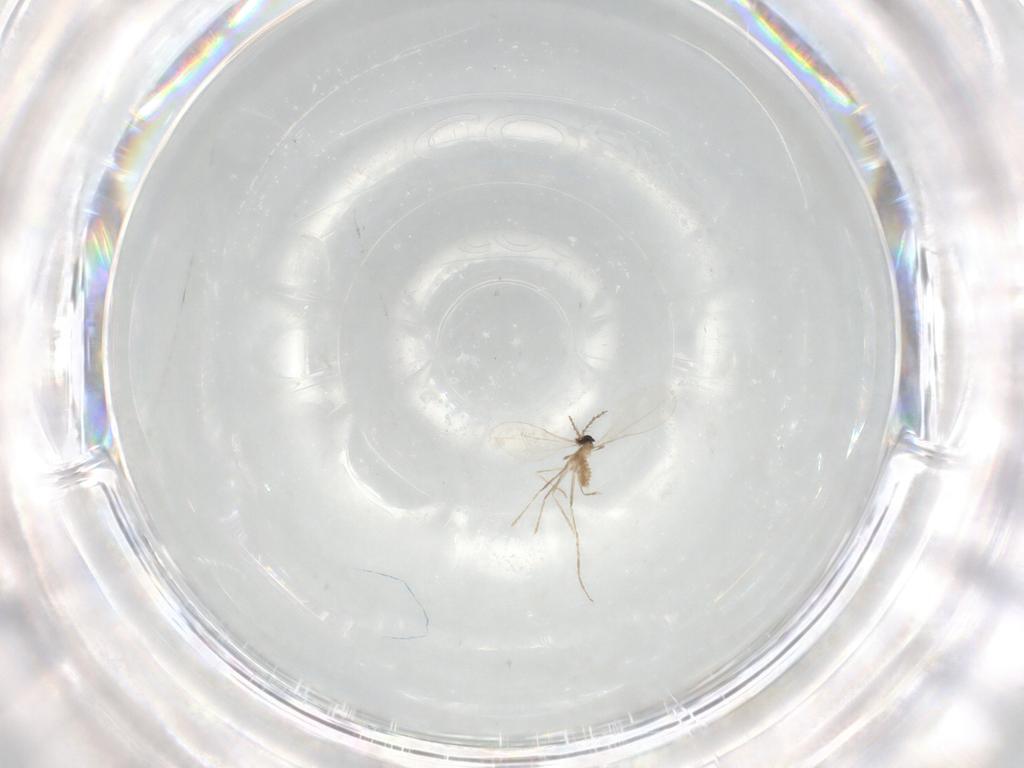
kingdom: Animalia
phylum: Arthropoda
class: Insecta
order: Diptera
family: Cecidomyiidae
